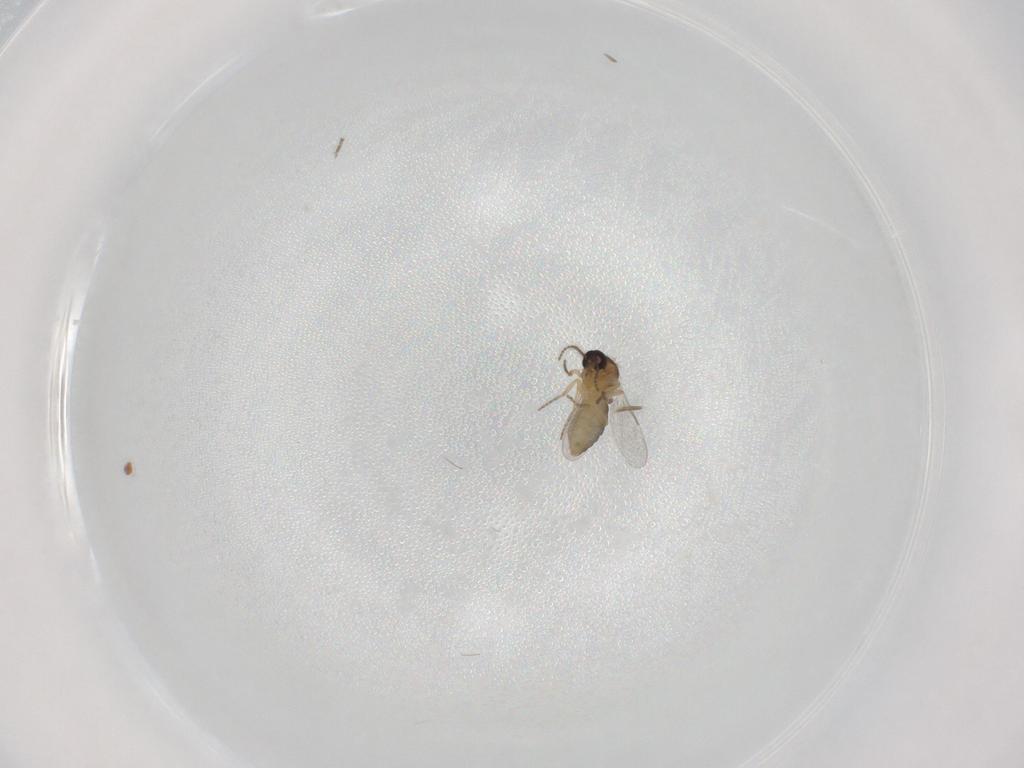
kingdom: Animalia
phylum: Arthropoda
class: Insecta
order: Diptera
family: Ceratopogonidae
